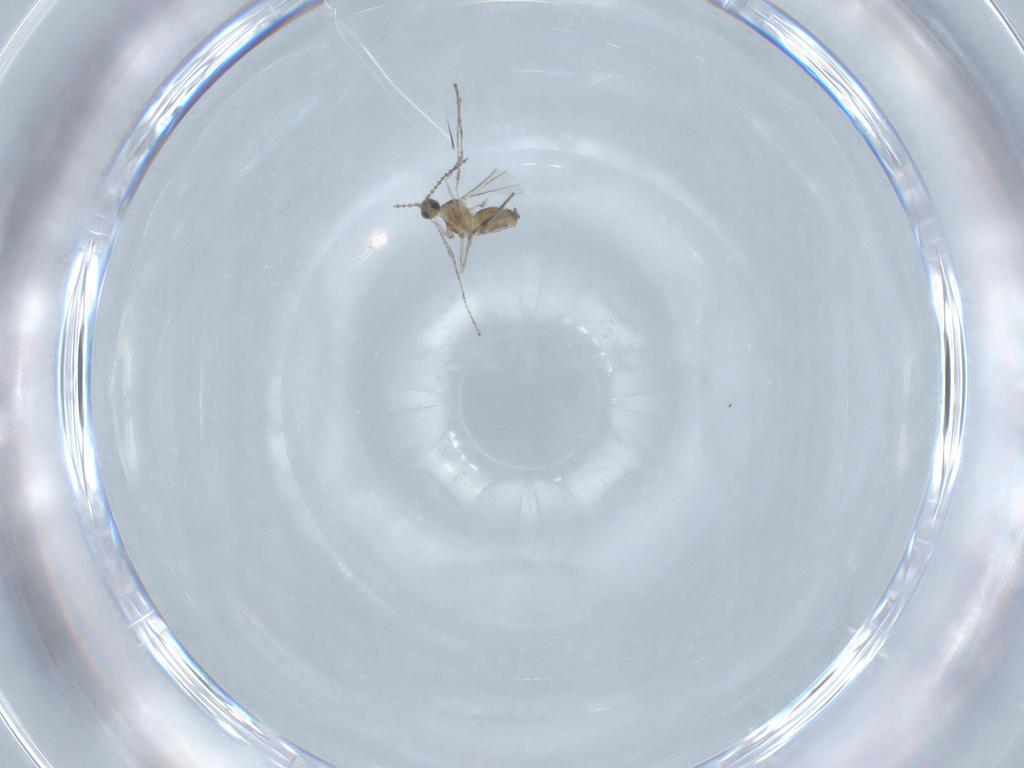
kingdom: Animalia
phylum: Arthropoda
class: Insecta
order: Diptera
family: Cecidomyiidae
